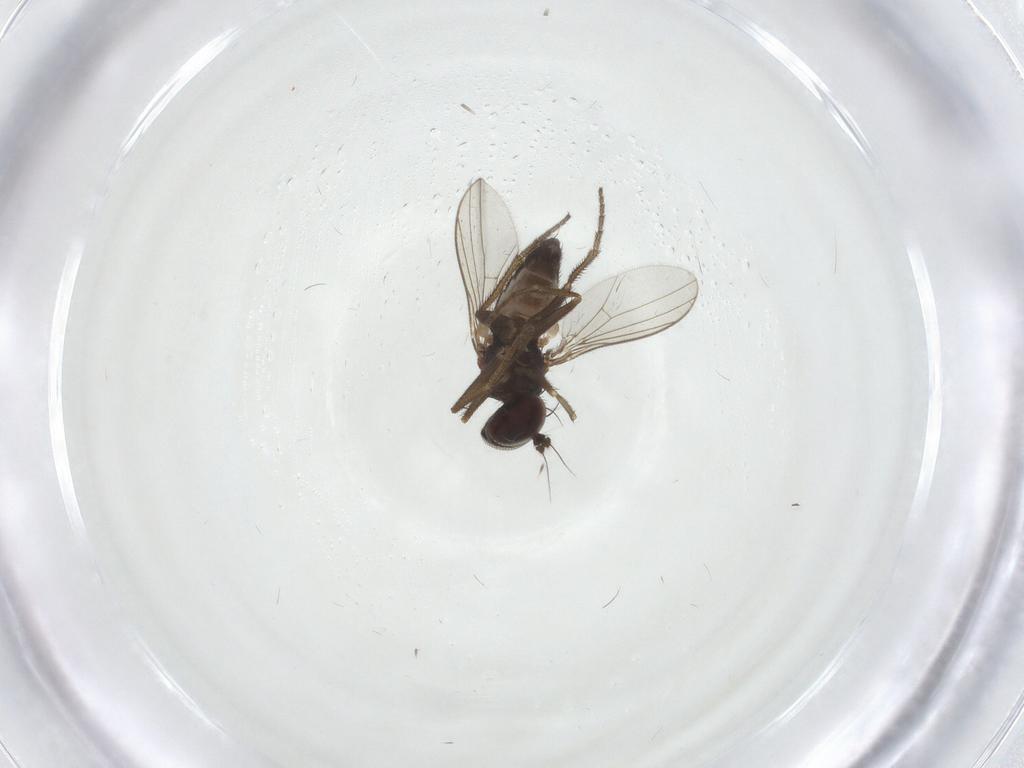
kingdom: Animalia
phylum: Arthropoda
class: Insecta
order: Diptera
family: Dolichopodidae
